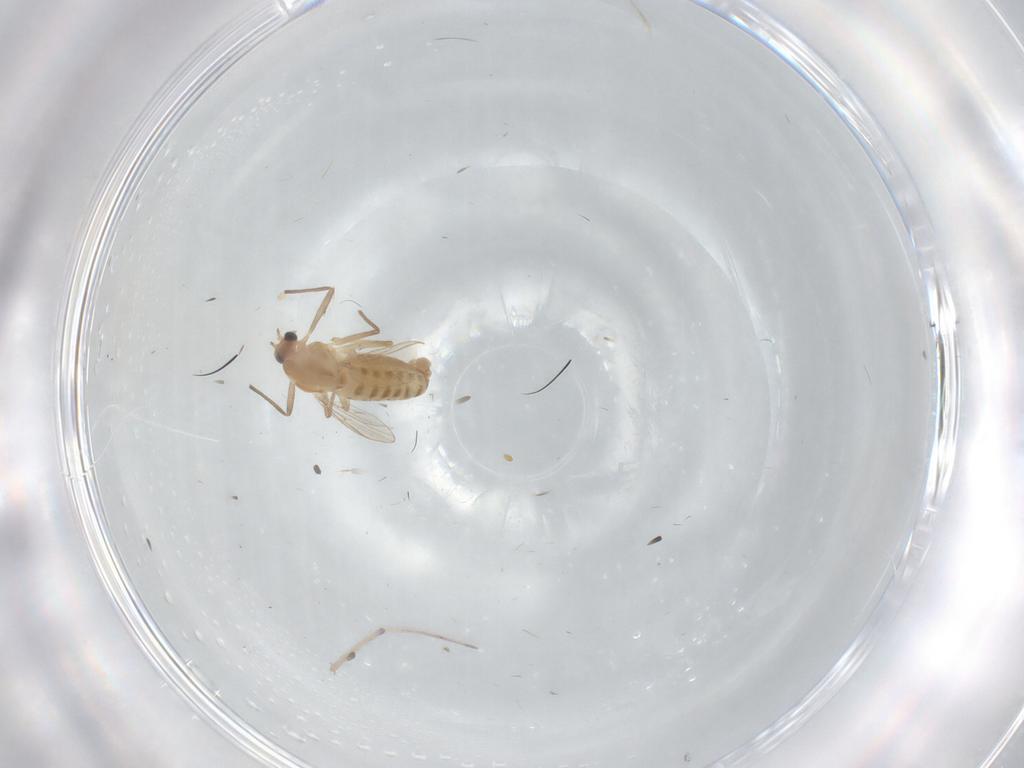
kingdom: Animalia
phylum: Arthropoda
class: Insecta
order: Diptera
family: Chironomidae
